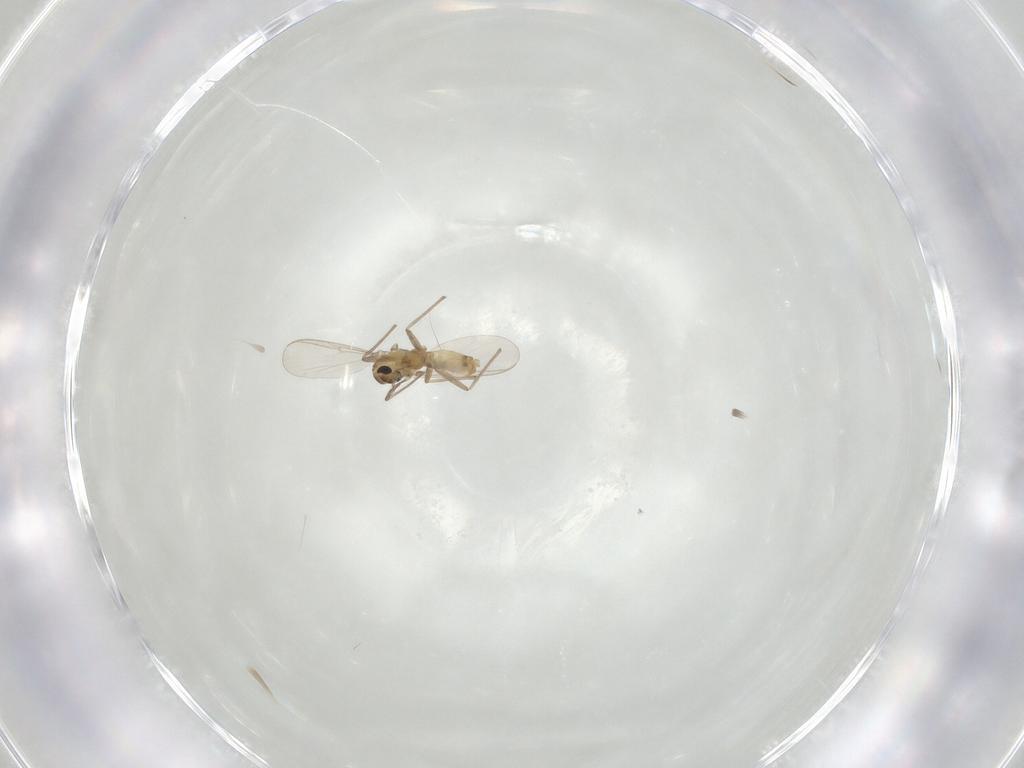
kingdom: Animalia
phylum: Arthropoda
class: Insecta
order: Diptera
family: Chironomidae
